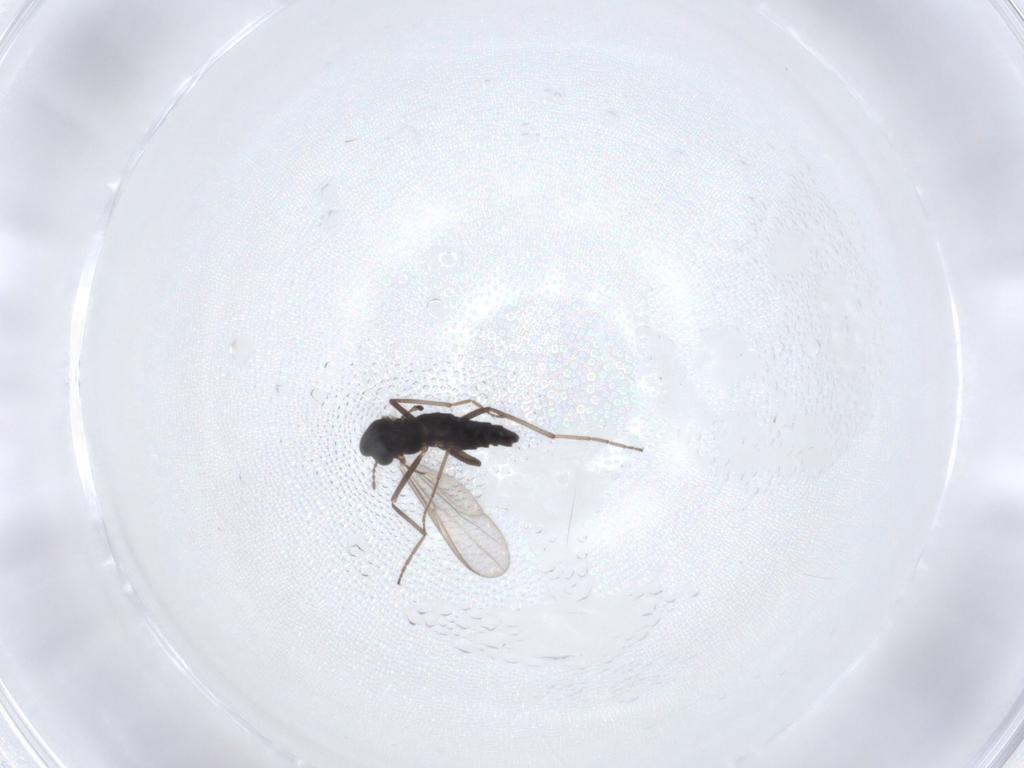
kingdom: Animalia
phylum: Arthropoda
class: Insecta
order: Diptera
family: Chironomidae
